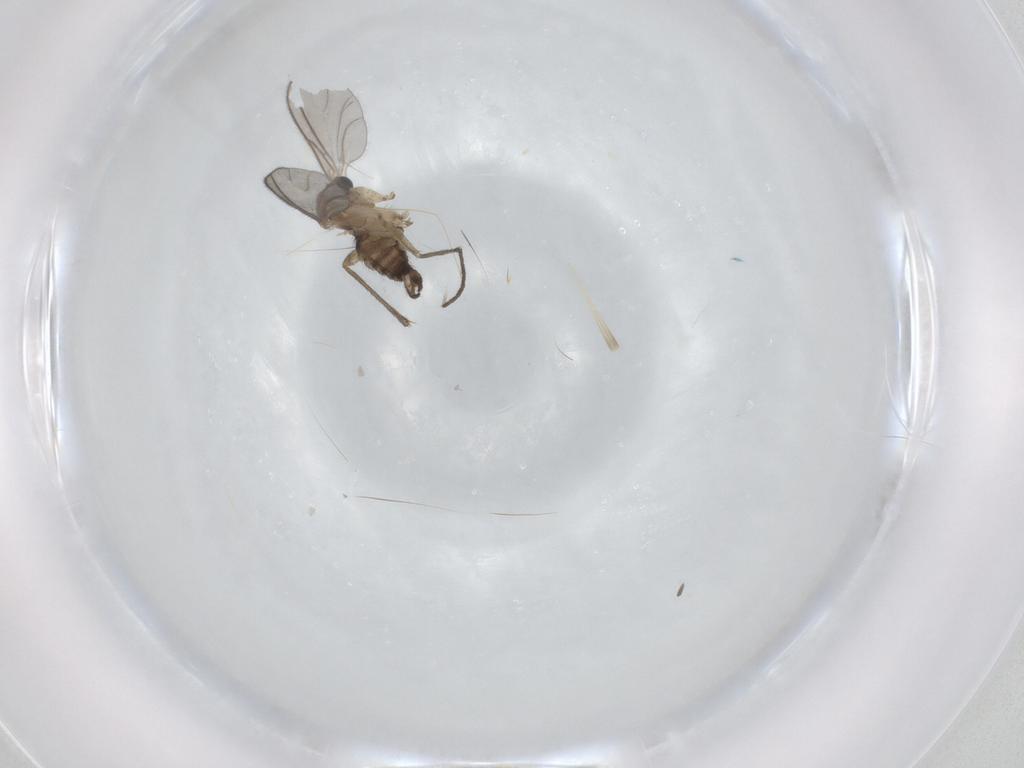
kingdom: Animalia
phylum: Arthropoda
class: Insecta
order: Diptera
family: Sciaridae
